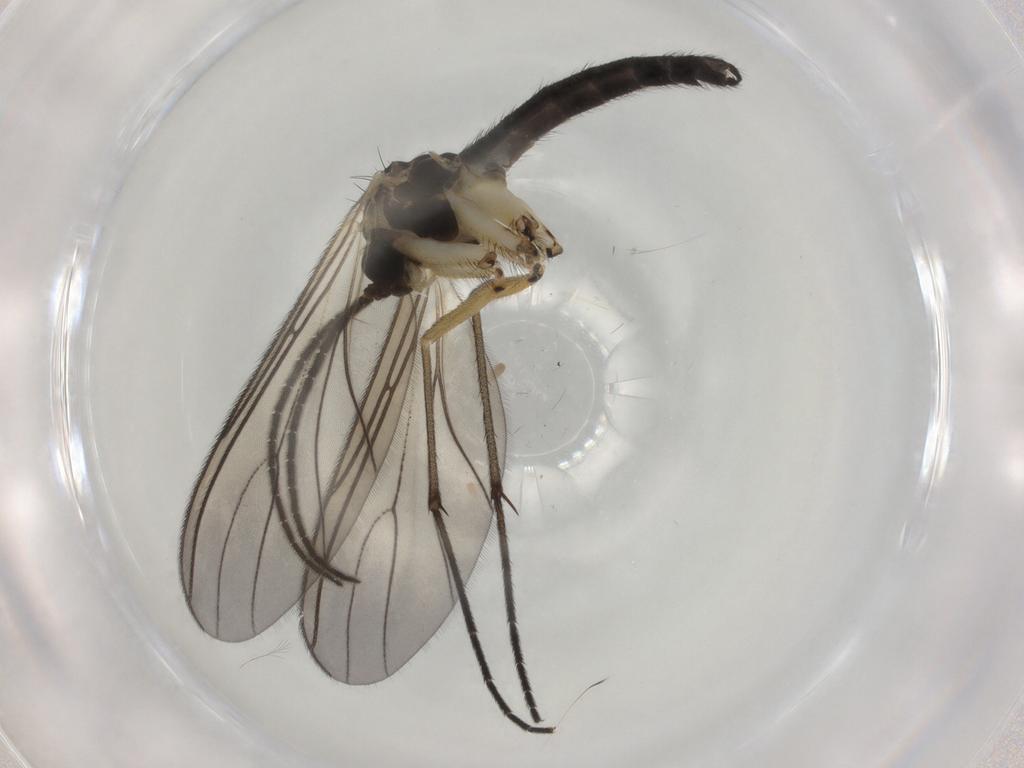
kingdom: Animalia
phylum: Arthropoda
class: Insecta
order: Diptera
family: Sciaridae
